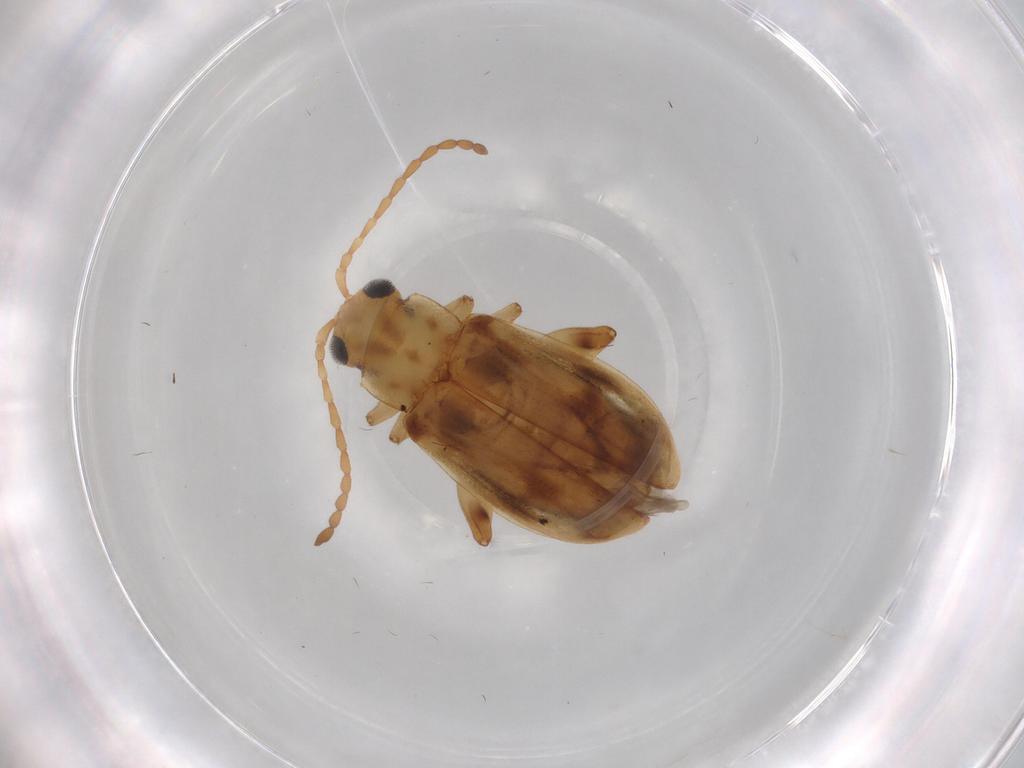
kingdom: Animalia
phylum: Arthropoda
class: Insecta
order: Coleoptera
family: Chrysomelidae
